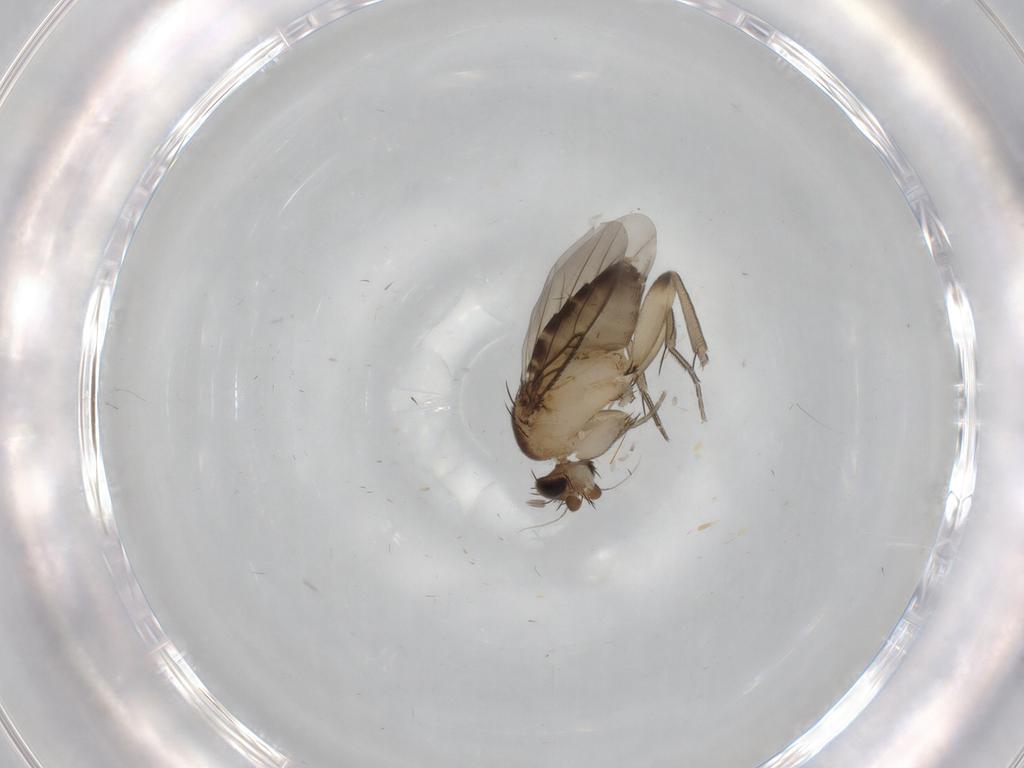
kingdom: Animalia
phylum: Arthropoda
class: Insecta
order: Diptera
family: Phoridae
